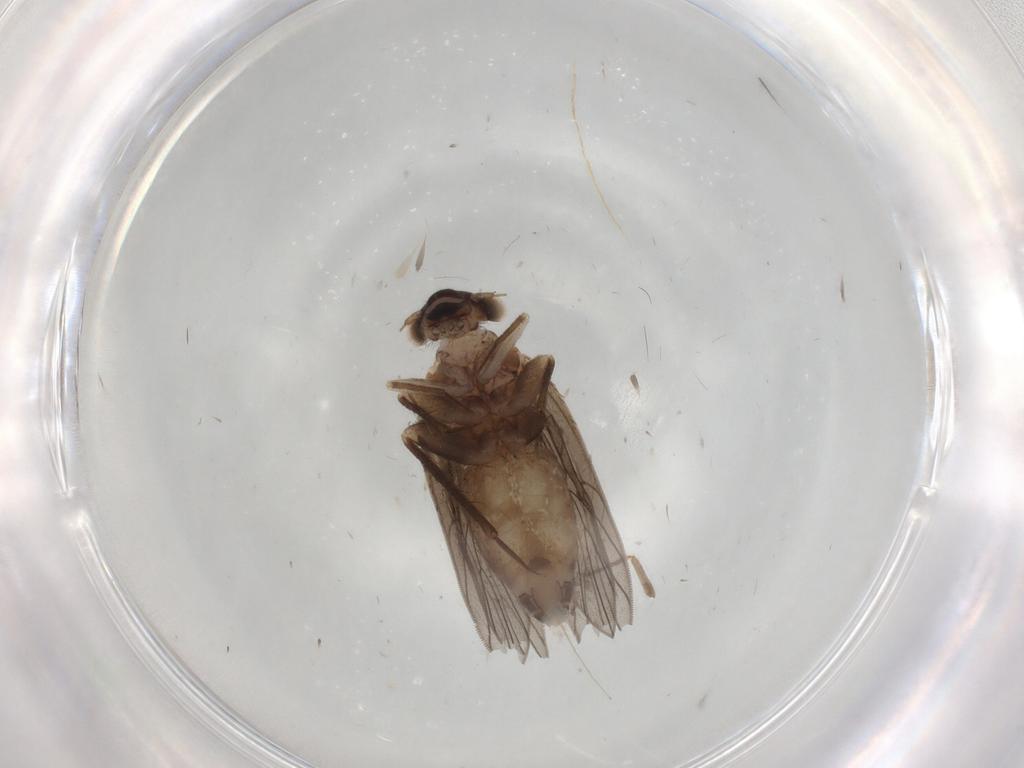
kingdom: Animalia
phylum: Arthropoda
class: Insecta
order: Psocodea
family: Lepidopsocidae
